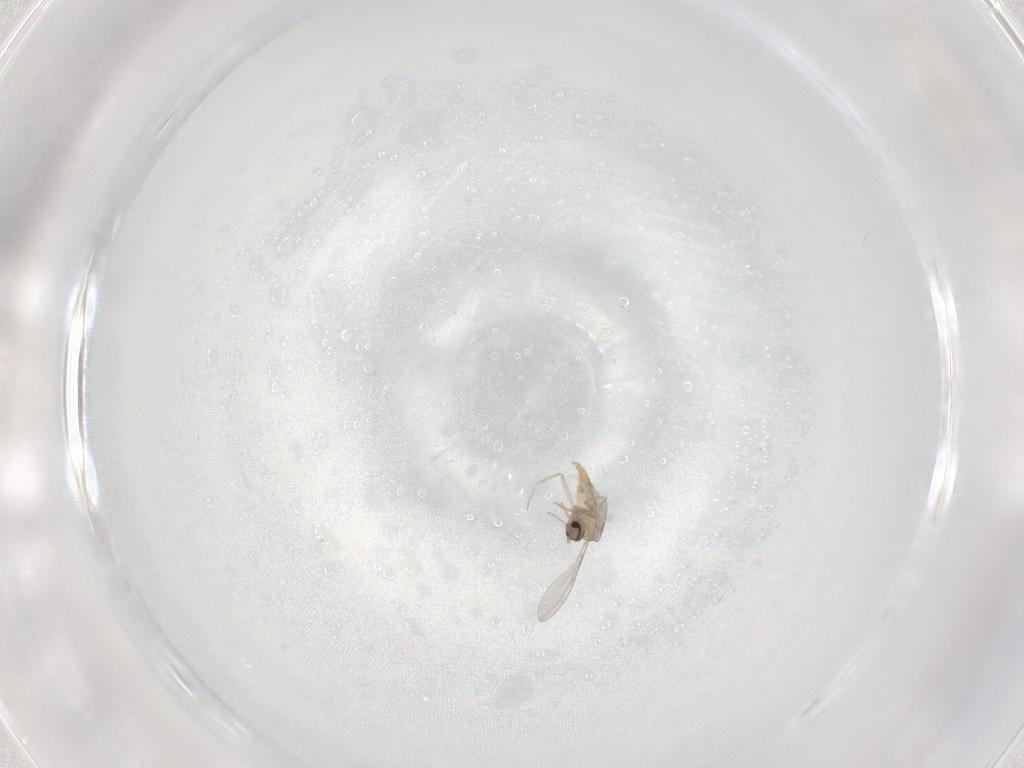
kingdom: Animalia
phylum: Arthropoda
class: Insecta
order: Diptera
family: Cecidomyiidae
